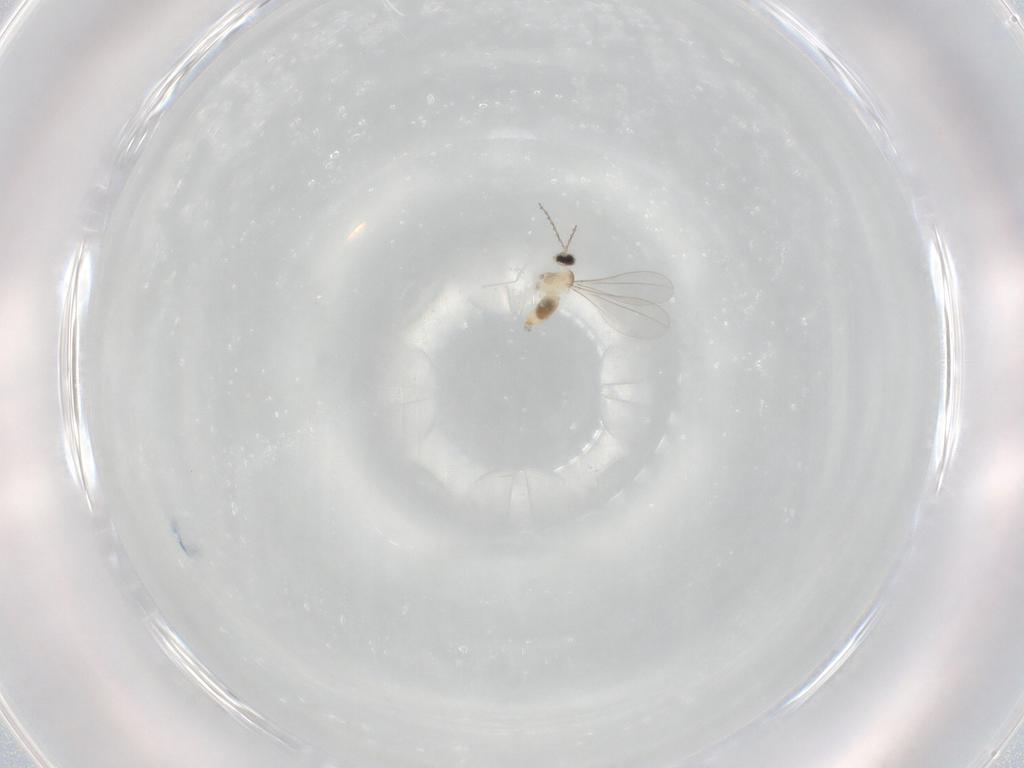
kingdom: Animalia
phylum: Arthropoda
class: Insecta
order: Diptera
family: Cecidomyiidae
